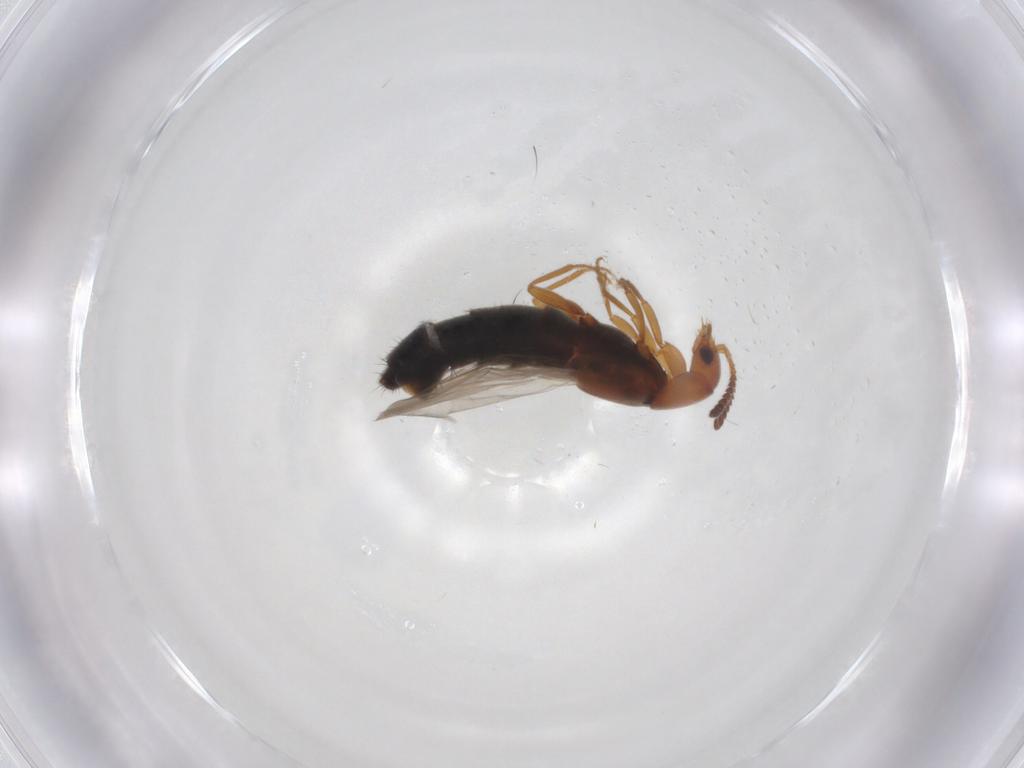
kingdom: Animalia
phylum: Arthropoda
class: Insecta
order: Coleoptera
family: Staphylinidae
